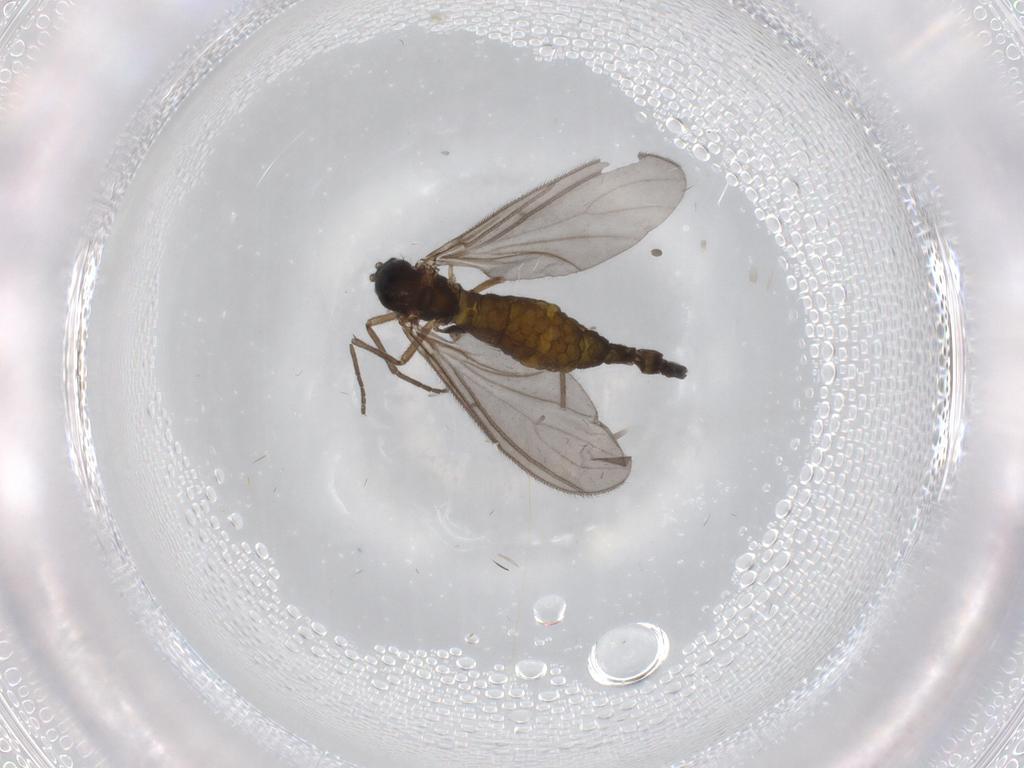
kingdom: Animalia
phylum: Arthropoda
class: Insecta
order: Diptera
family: Sciaridae
